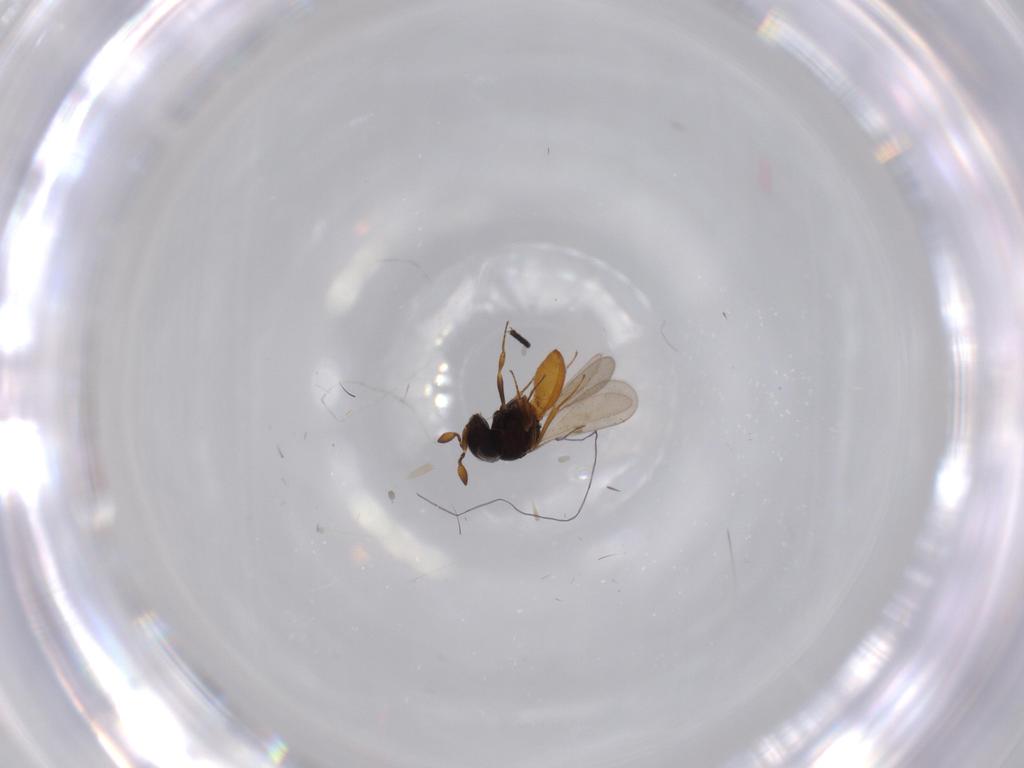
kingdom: Animalia
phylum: Arthropoda
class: Insecta
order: Hymenoptera
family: Scelionidae
